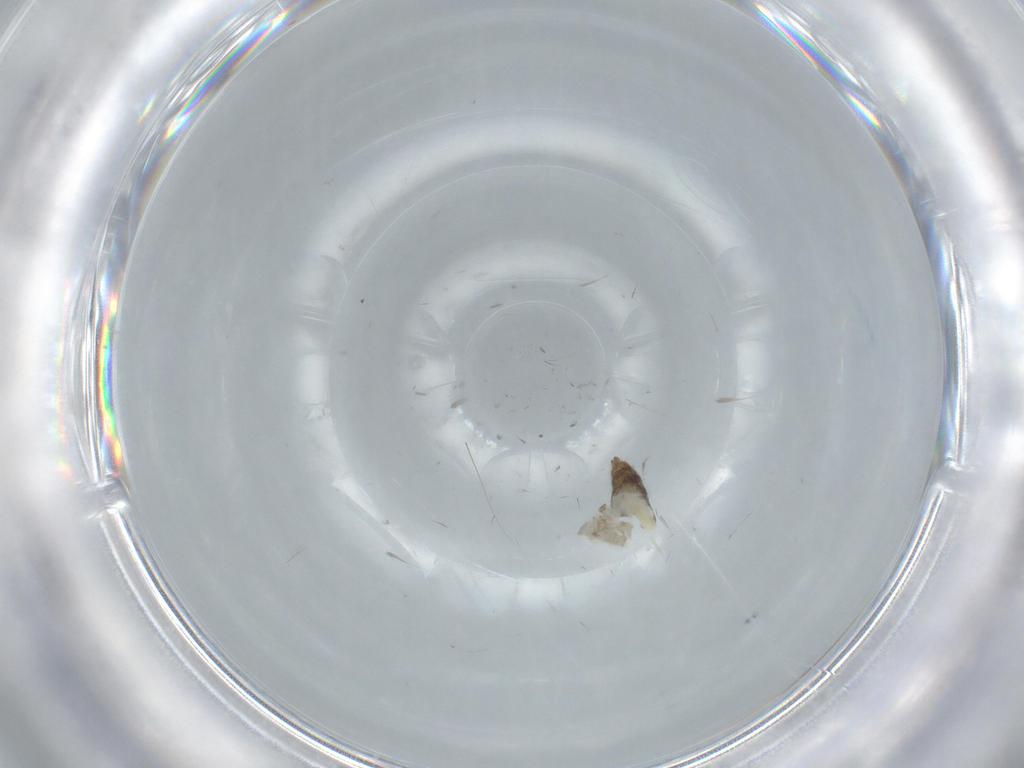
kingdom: Animalia
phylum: Arthropoda
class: Insecta
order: Diptera
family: Chironomidae
